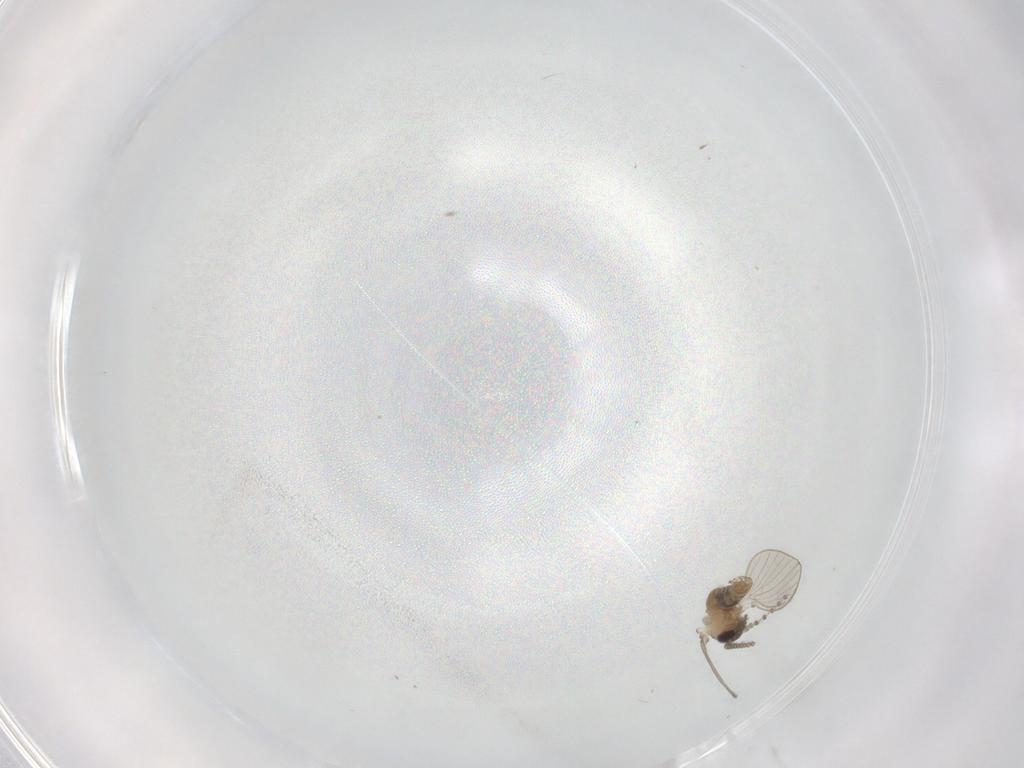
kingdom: Animalia
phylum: Arthropoda
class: Insecta
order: Diptera
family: Psychodidae
